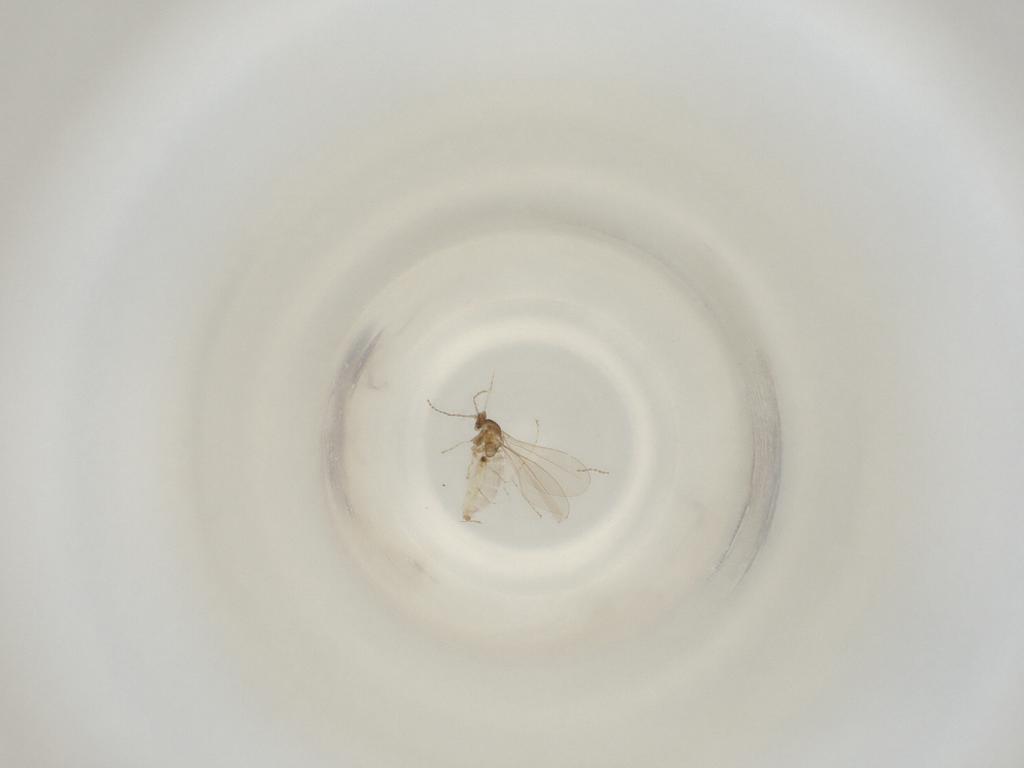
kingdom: Animalia
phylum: Arthropoda
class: Insecta
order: Diptera
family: Cecidomyiidae
